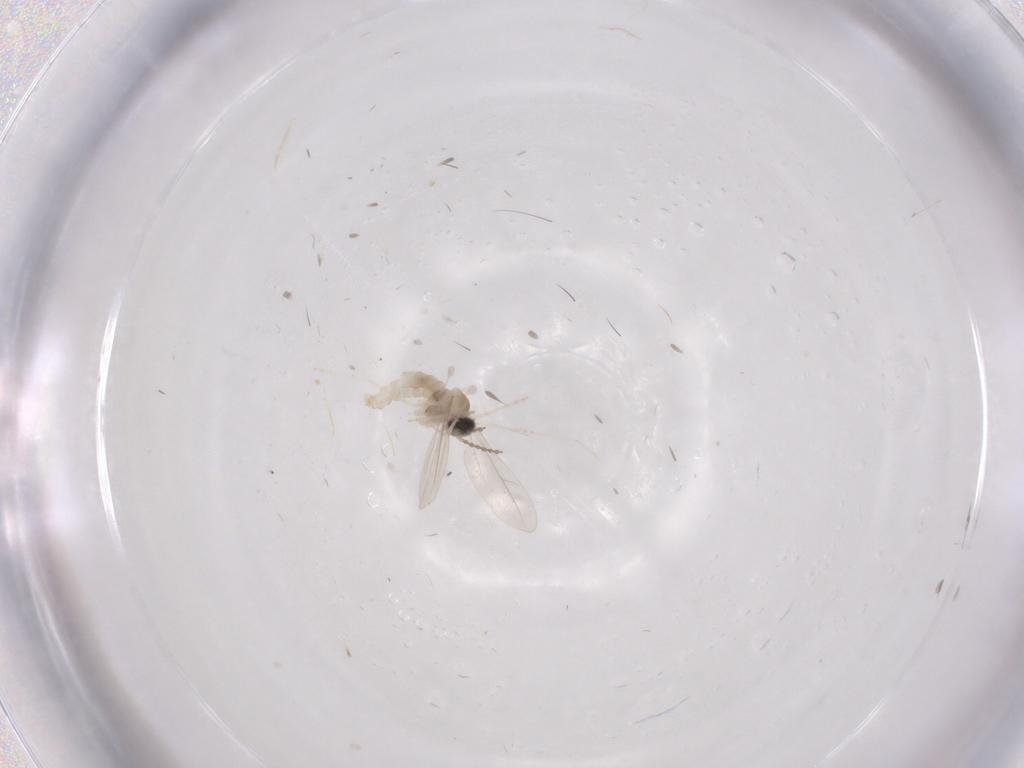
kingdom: Animalia
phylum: Arthropoda
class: Insecta
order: Diptera
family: Cecidomyiidae
